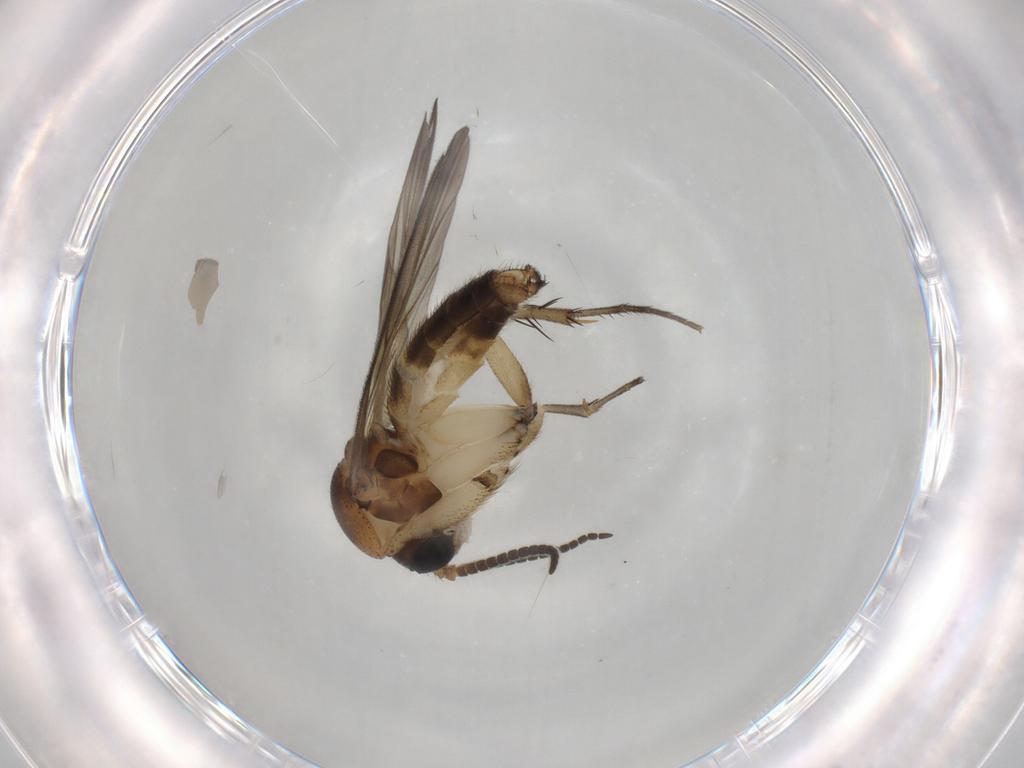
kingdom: Animalia
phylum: Arthropoda
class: Insecta
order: Diptera
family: Mycetophilidae
